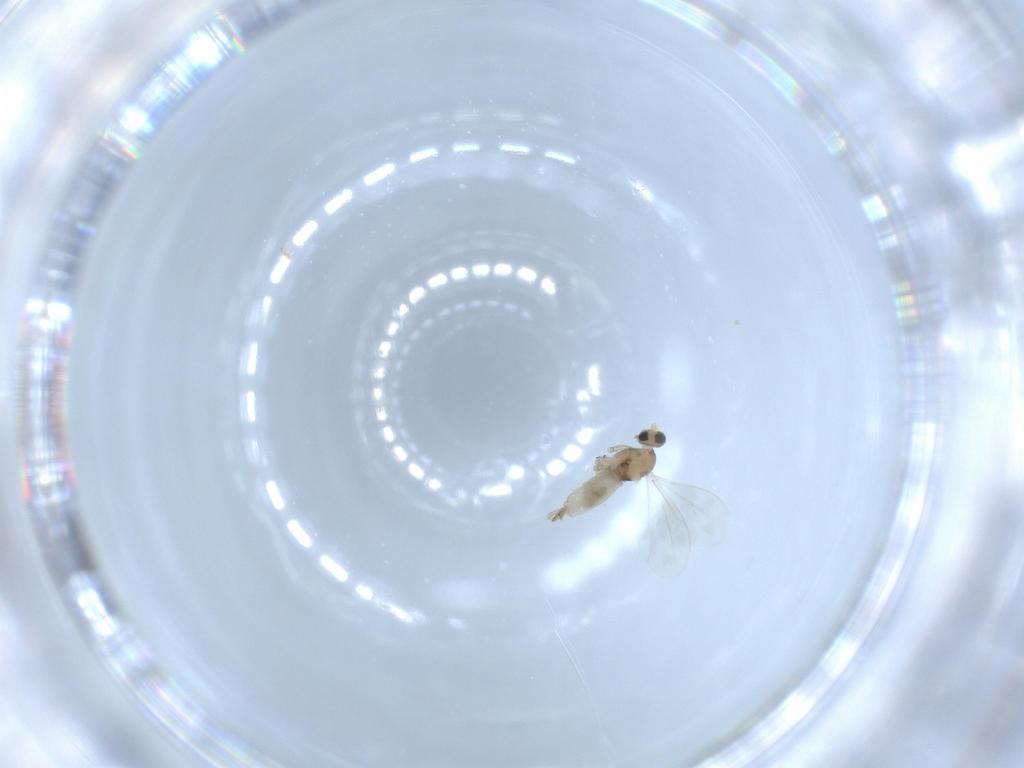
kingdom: Animalia
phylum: Arthropoda
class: Insecta
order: Diptera
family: Cecidomyiidae
